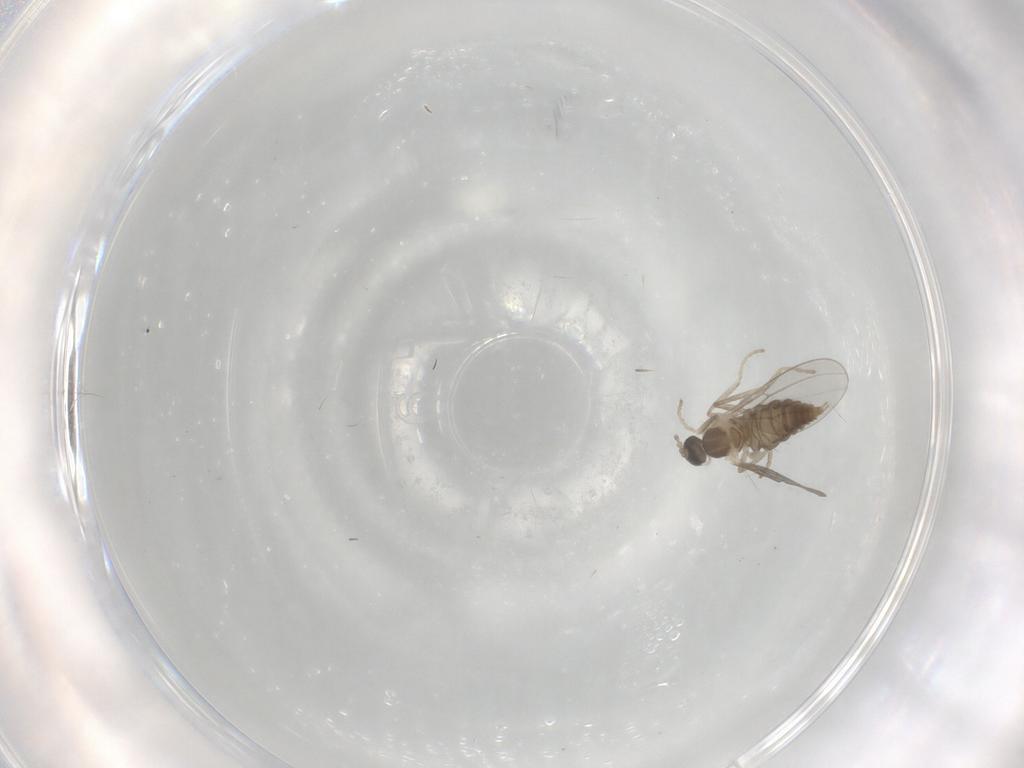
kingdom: Animalia
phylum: Arthropoda
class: Insecta
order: Diptera
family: Cecidomyiidae
